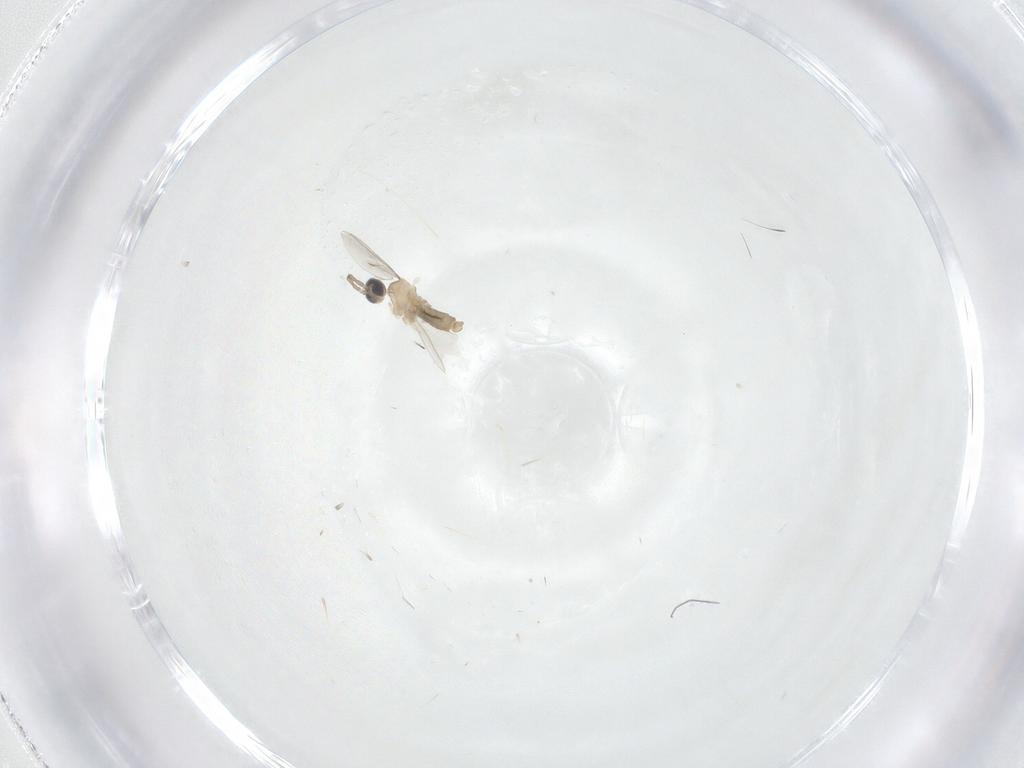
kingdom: Animalia
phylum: Arthropoda
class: Insecta
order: Diptera
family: Cecidomyiidae
